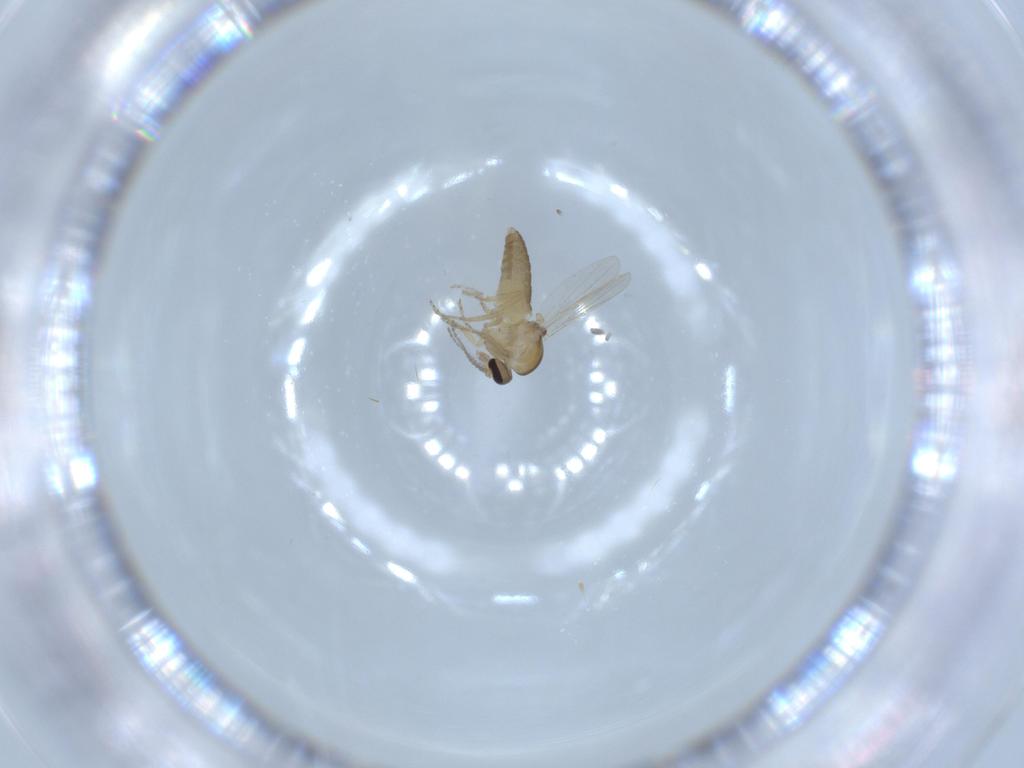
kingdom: Animalia
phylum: Arthropoda
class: Insecta
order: Diptera
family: Ceratopogonidae
